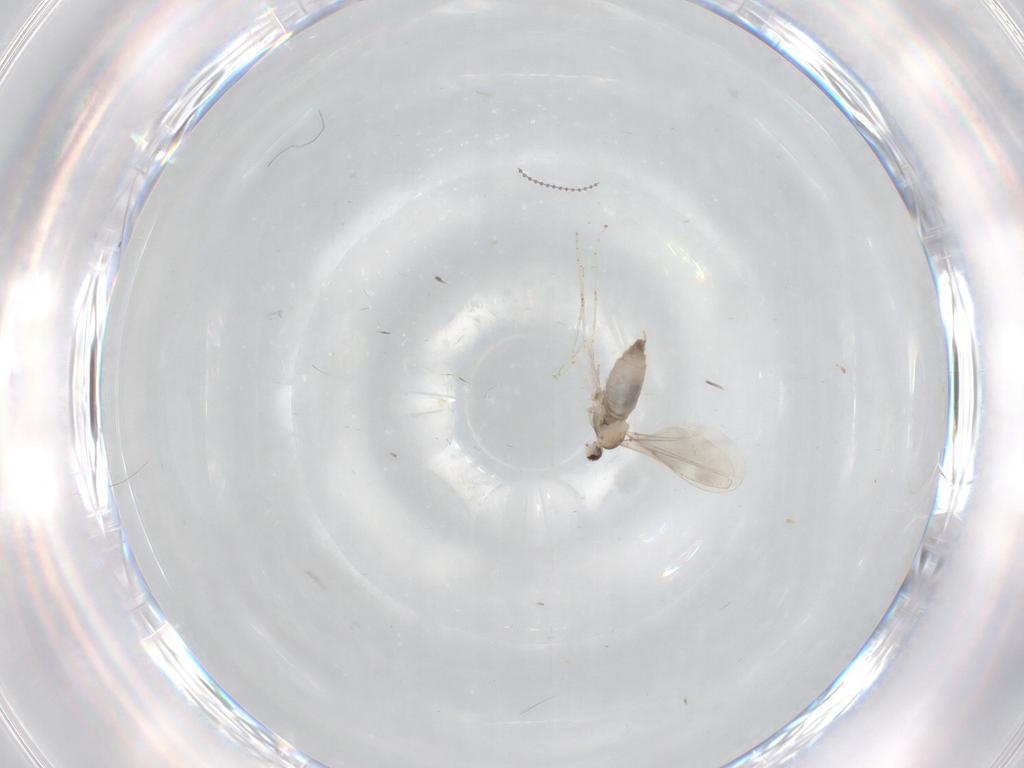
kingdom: Animalia
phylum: Arthropoda
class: Insecta
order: Diptera
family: Cecidomyiidae
